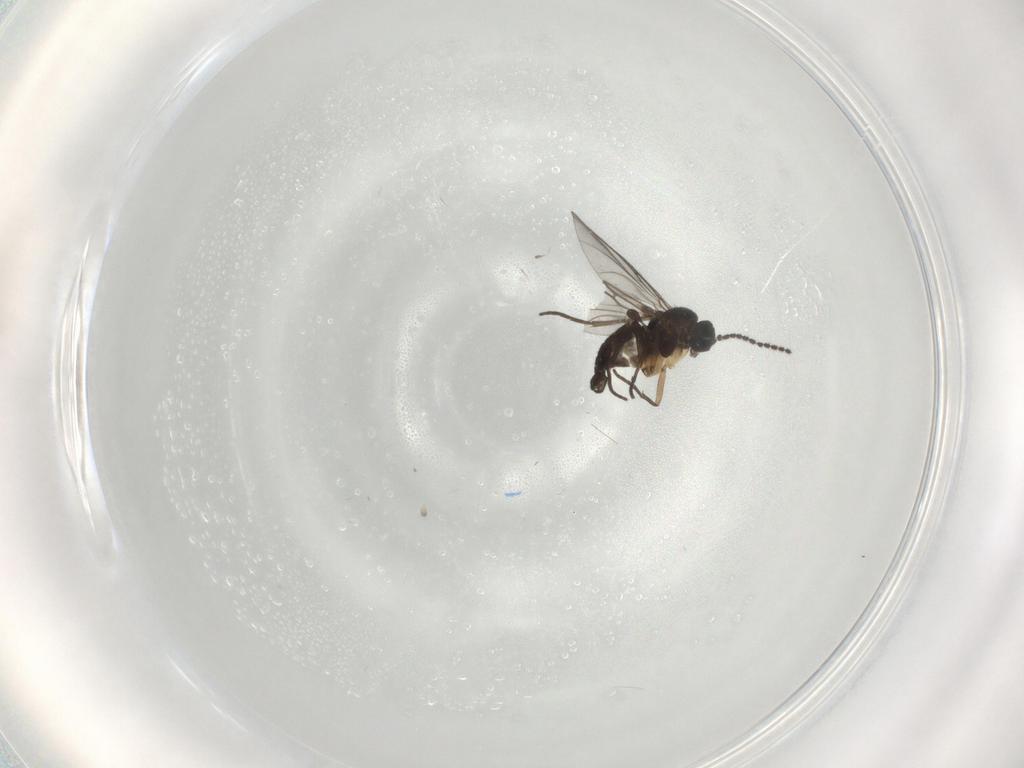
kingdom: Animalia
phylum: Arthropoda
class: Insecta
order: Diptera
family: Sciaridae
